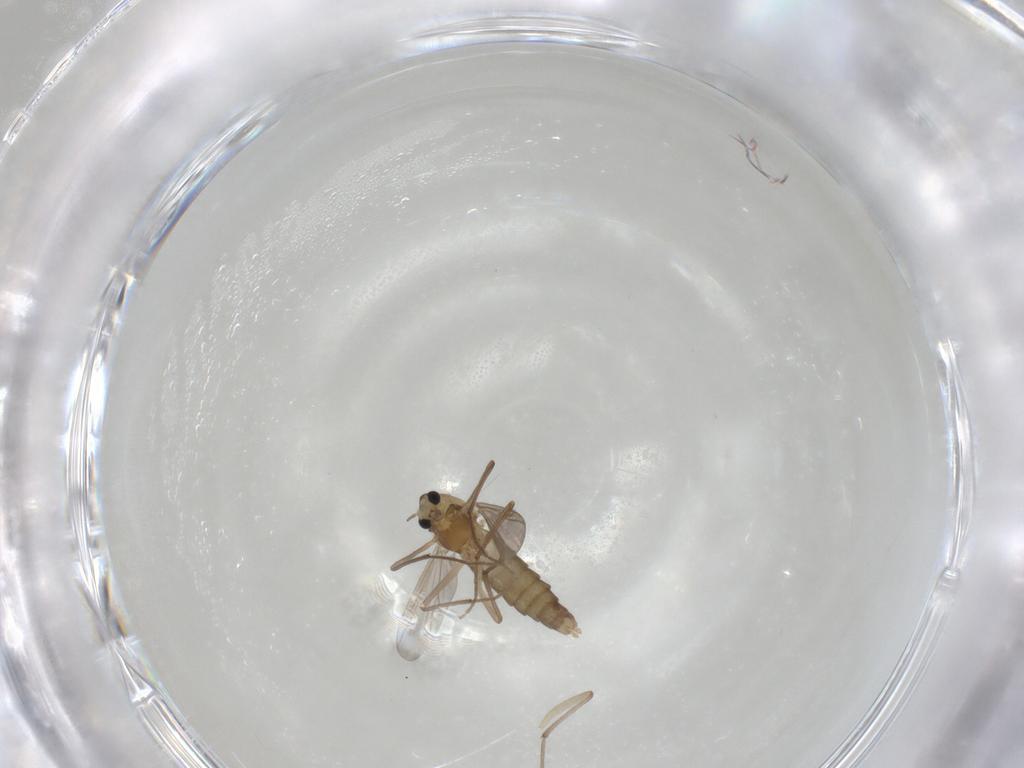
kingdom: Animalia
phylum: Arthropoda
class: Insecta
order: Diptera
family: Chironomidae
